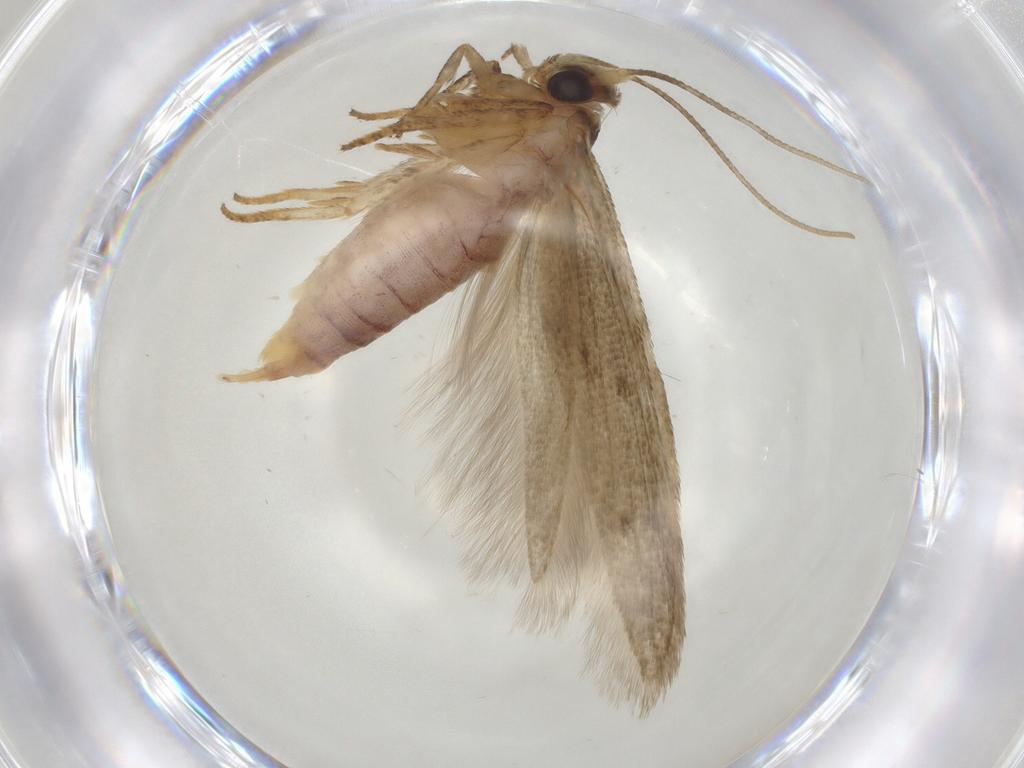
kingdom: Animalia
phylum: Arthropoda
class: Insecta
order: Lepidoptera
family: Coleophoridae
